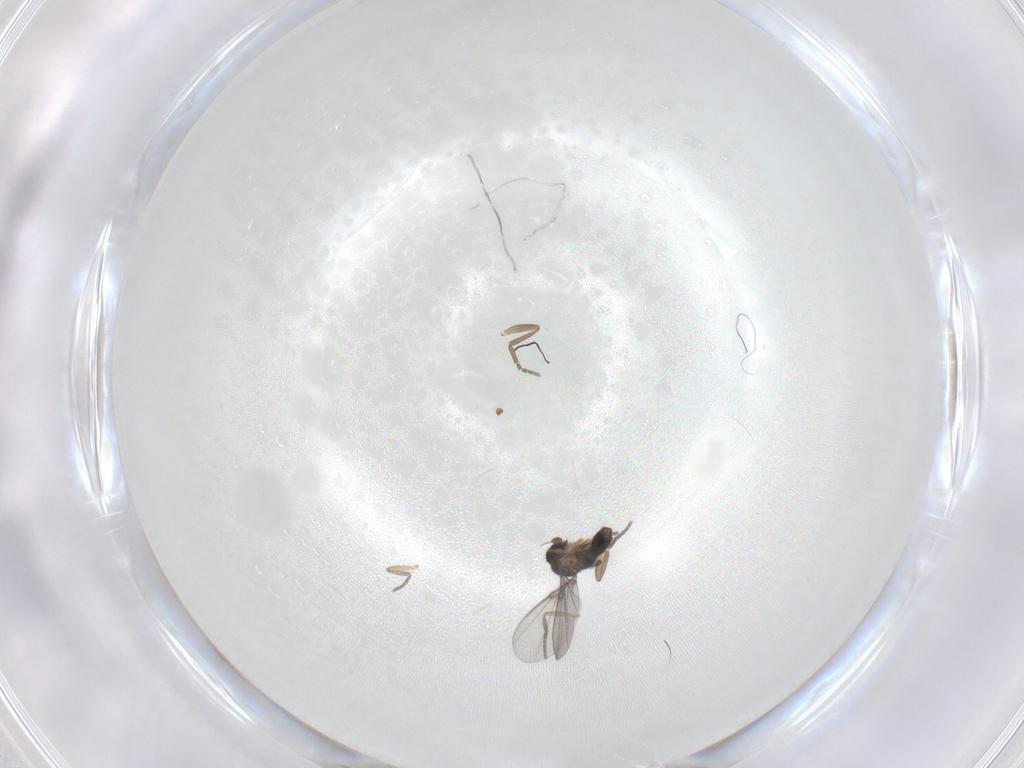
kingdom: Animalia
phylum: Arthropoda
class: Insecta
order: Diptera
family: Phoridae
